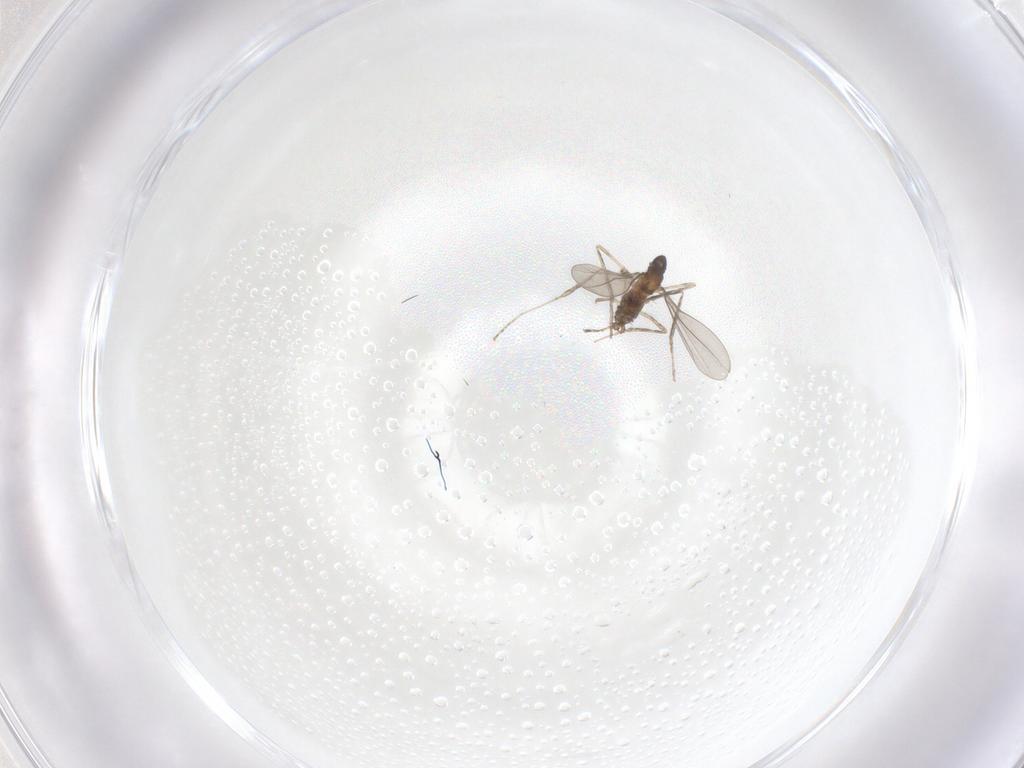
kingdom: Animalia
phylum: Arthropoda
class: Insecta
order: Diptera
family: Cecidomyiidae
